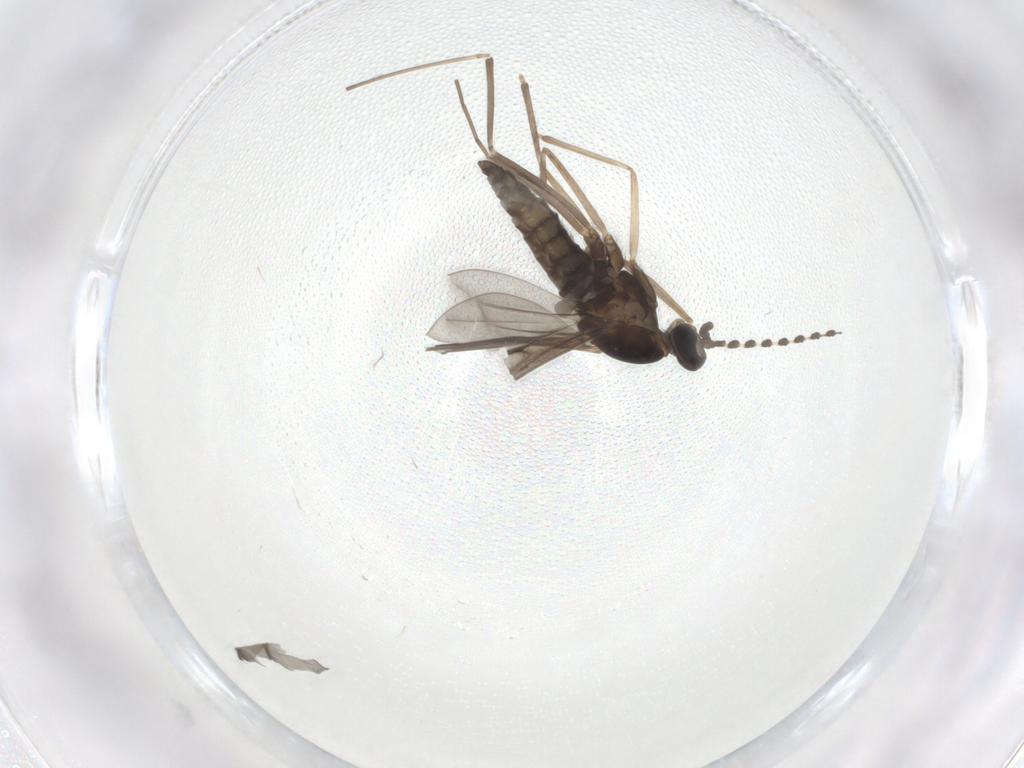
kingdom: Animalia
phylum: Arthropoda
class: Insecta
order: Diptera
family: Cecidomyiidae
